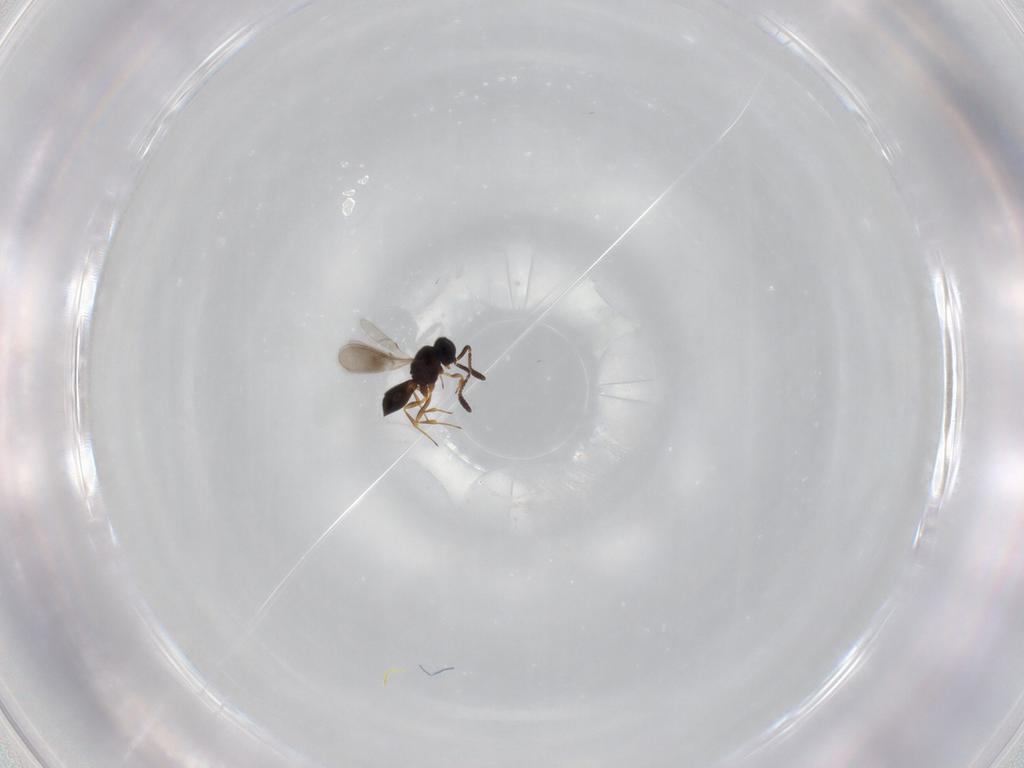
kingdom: Animalia
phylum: Arthropoda
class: Insecta
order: Hymenoptera
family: Scelionidae
